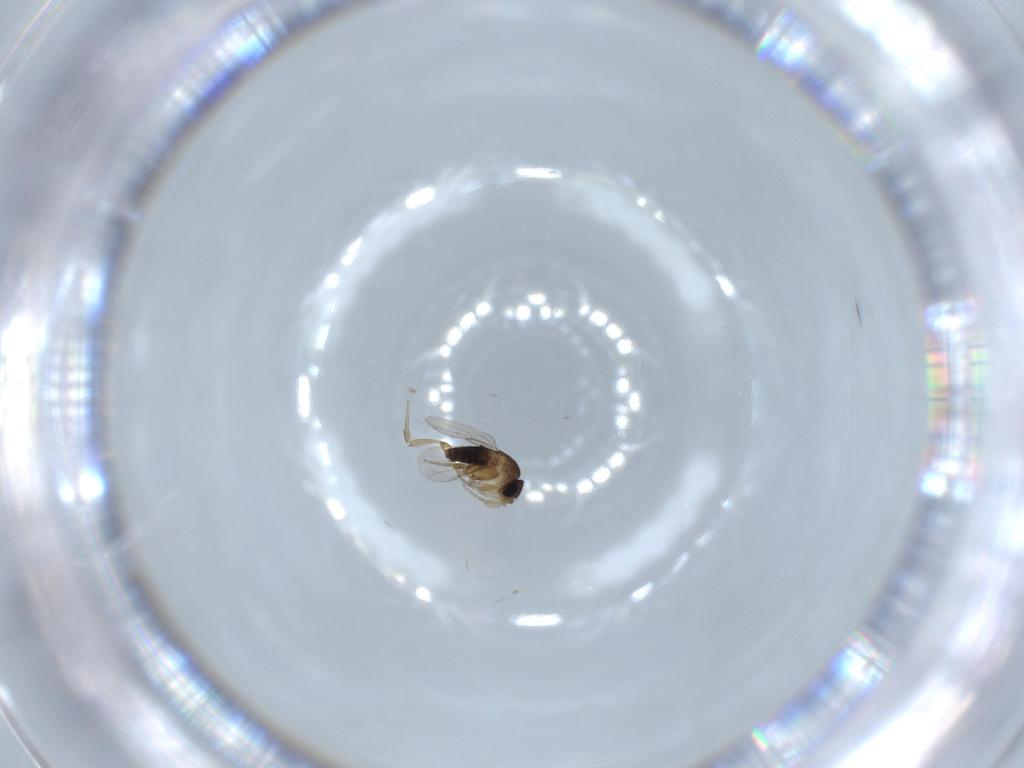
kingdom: Animalia
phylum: Arthropoda
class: Insecta
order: Diptera
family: Phoridae
